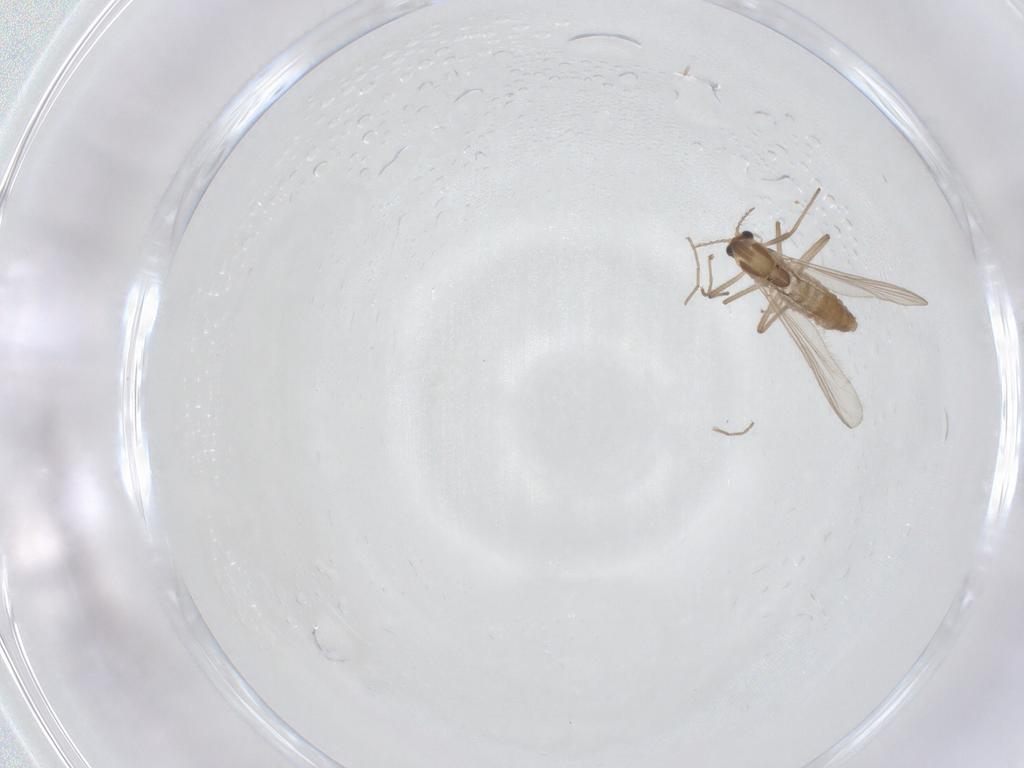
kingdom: Animalia
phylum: Arthropoda
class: Insecta
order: Diptera
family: Chironomidae
